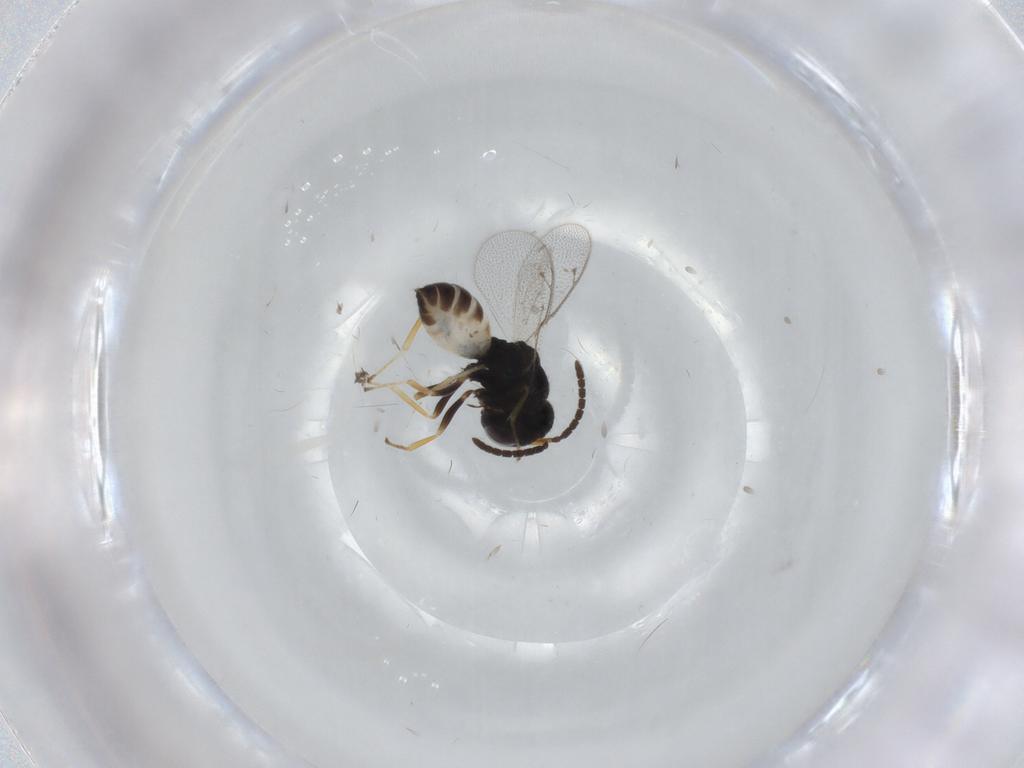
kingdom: Animalia
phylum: Arthropoda
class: Insecta
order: Hymenoptera
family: Pteromalidae
